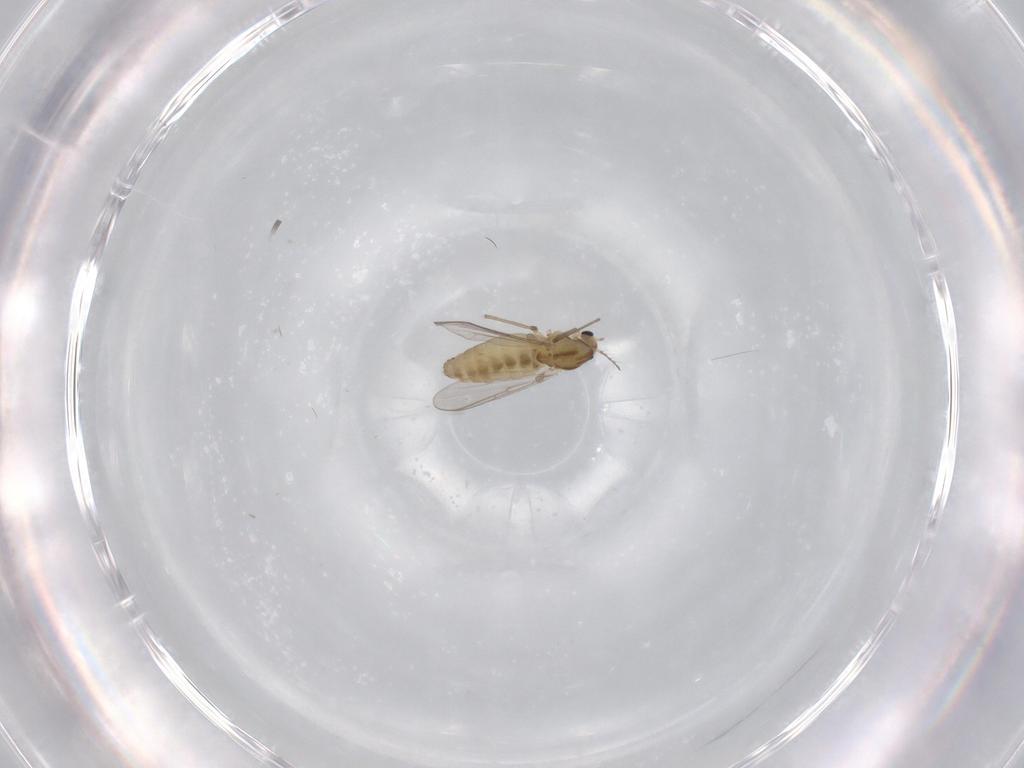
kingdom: Animalia
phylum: Arthropoda
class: Insecta
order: Diptera
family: Chironomidae
